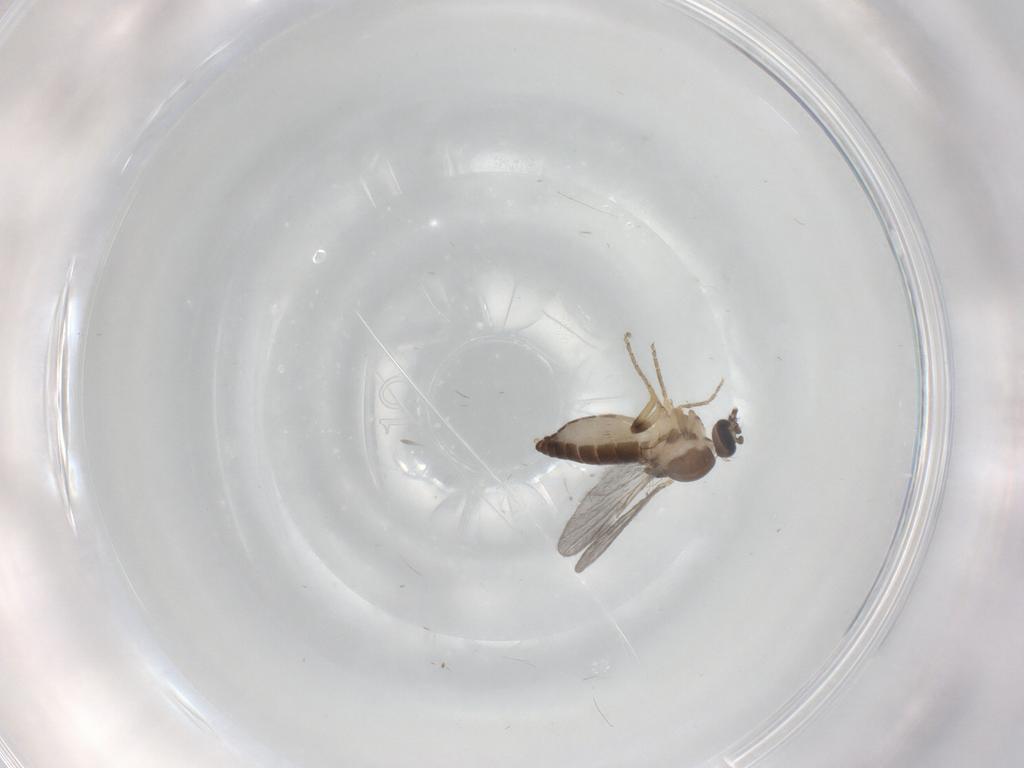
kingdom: Animalia
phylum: Arthropoda
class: Insecta
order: Diptera
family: Ceratopogonidae
